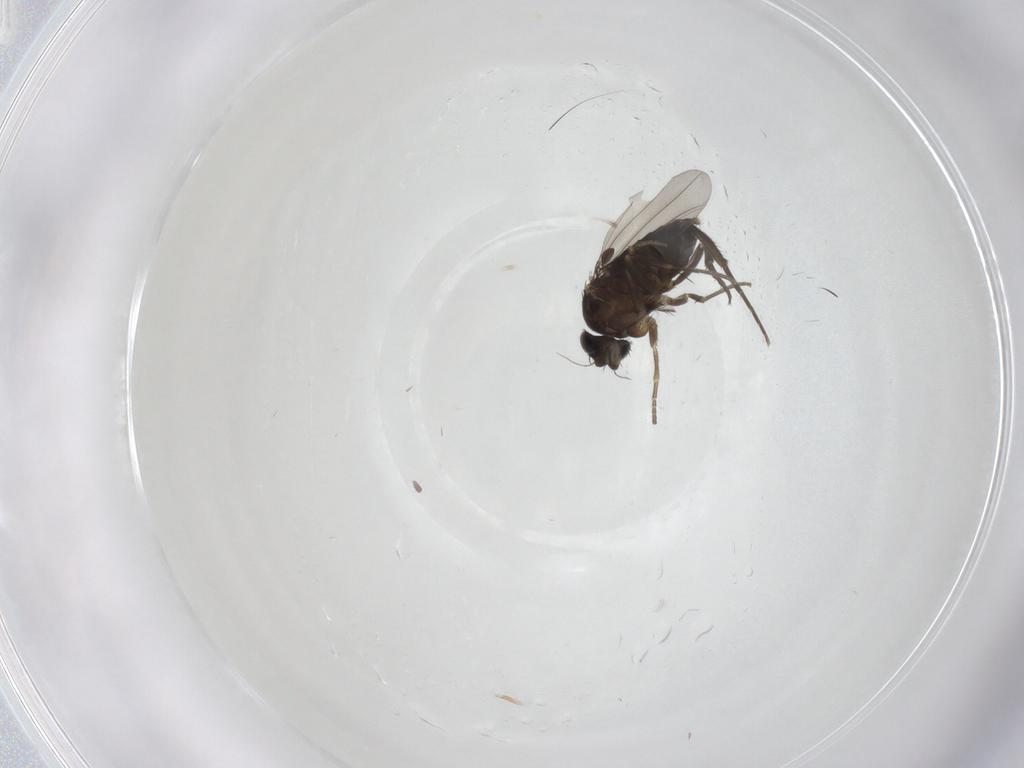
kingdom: Animalia
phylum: Arthropoda
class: Insecta
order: Diptera
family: Phoridae
